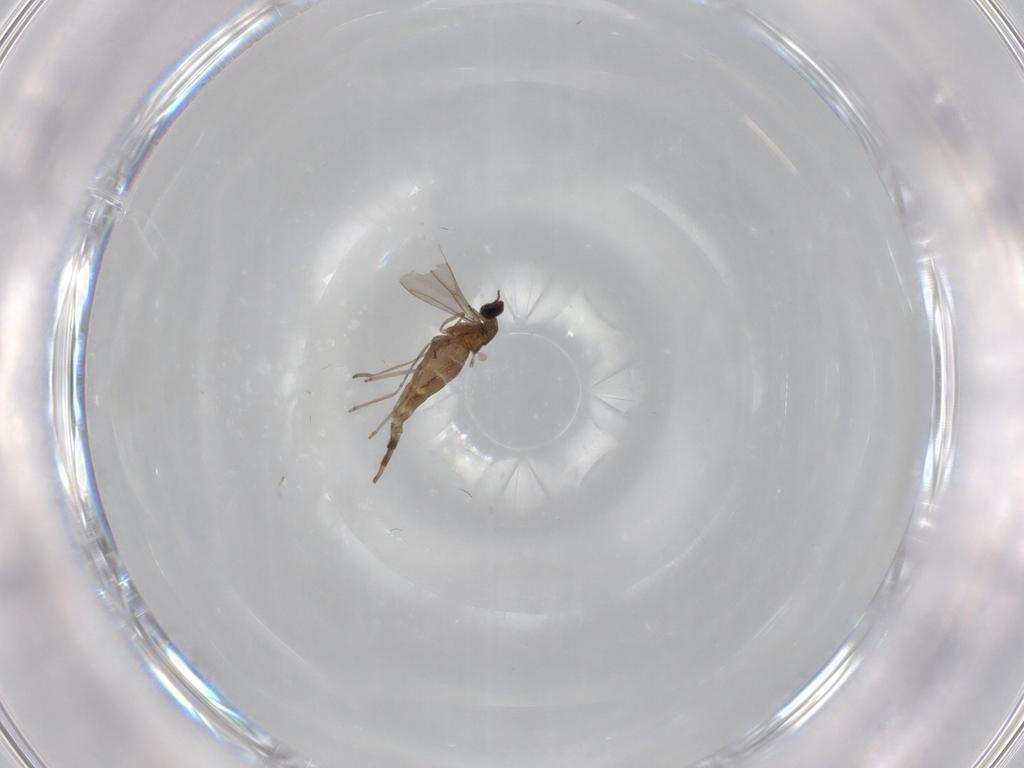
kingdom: Animalia
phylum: Arthropoda
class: Insecta
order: Diptera
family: Cecidomyiidae
